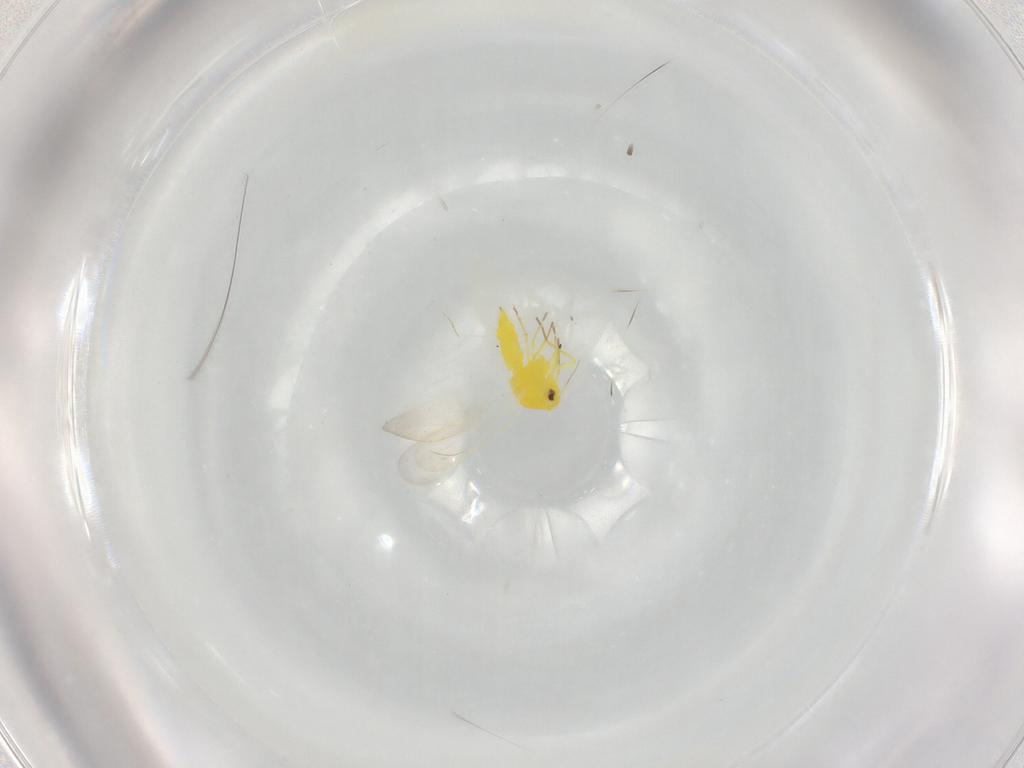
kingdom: Animalia
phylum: Arthropoda
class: Insecta
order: Hemiptera
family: Aleyrodidae
